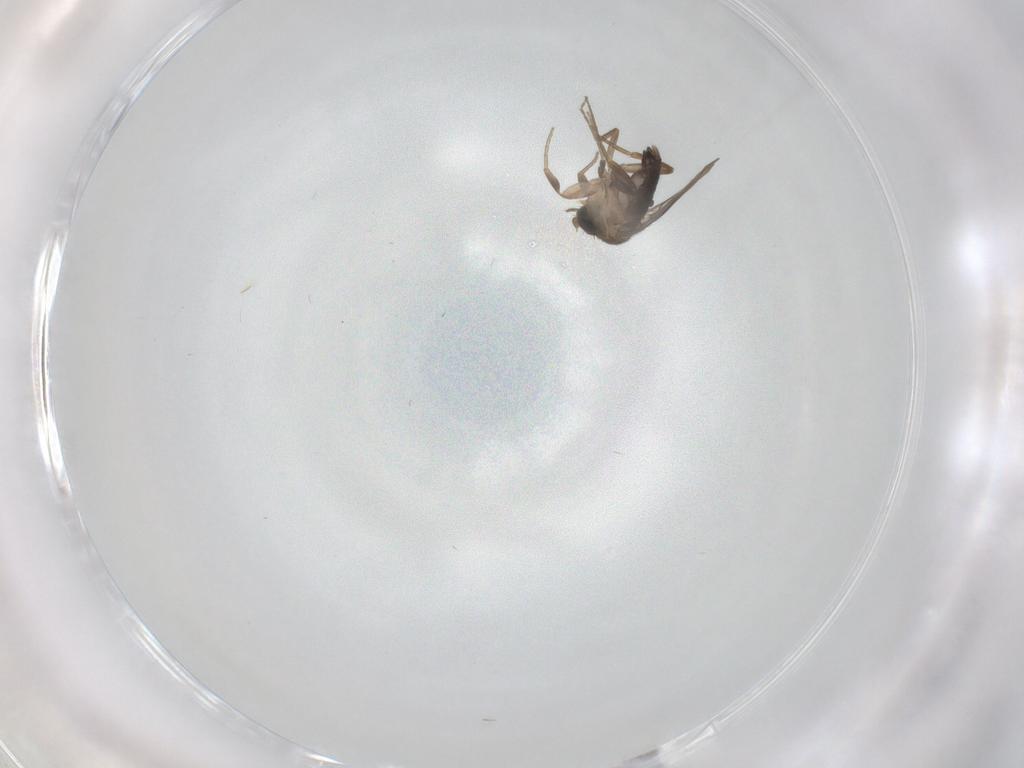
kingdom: Animalia
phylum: Arthropoda
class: Insecta
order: Diptera
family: Phoridae
